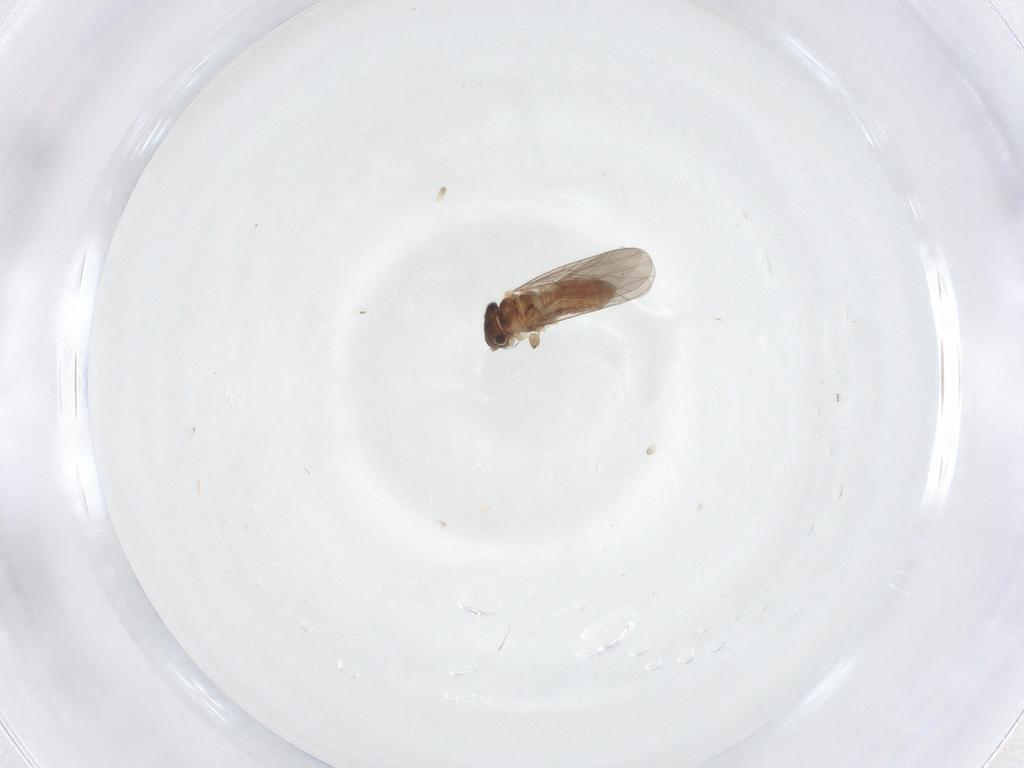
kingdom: Animalia
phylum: Arthropoda
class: Insecta
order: Psocodea
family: Lepidopsocidae
